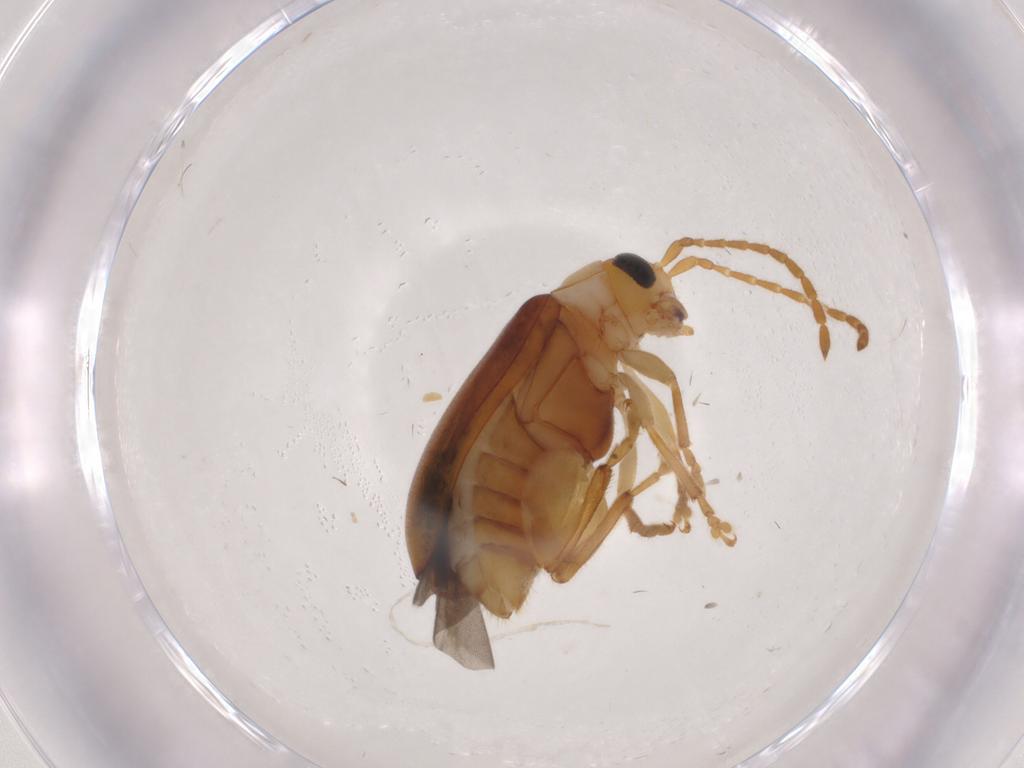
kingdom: Animalia
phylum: Arthropoda
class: Insecta
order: Coleoptera
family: Chrysomelidae
